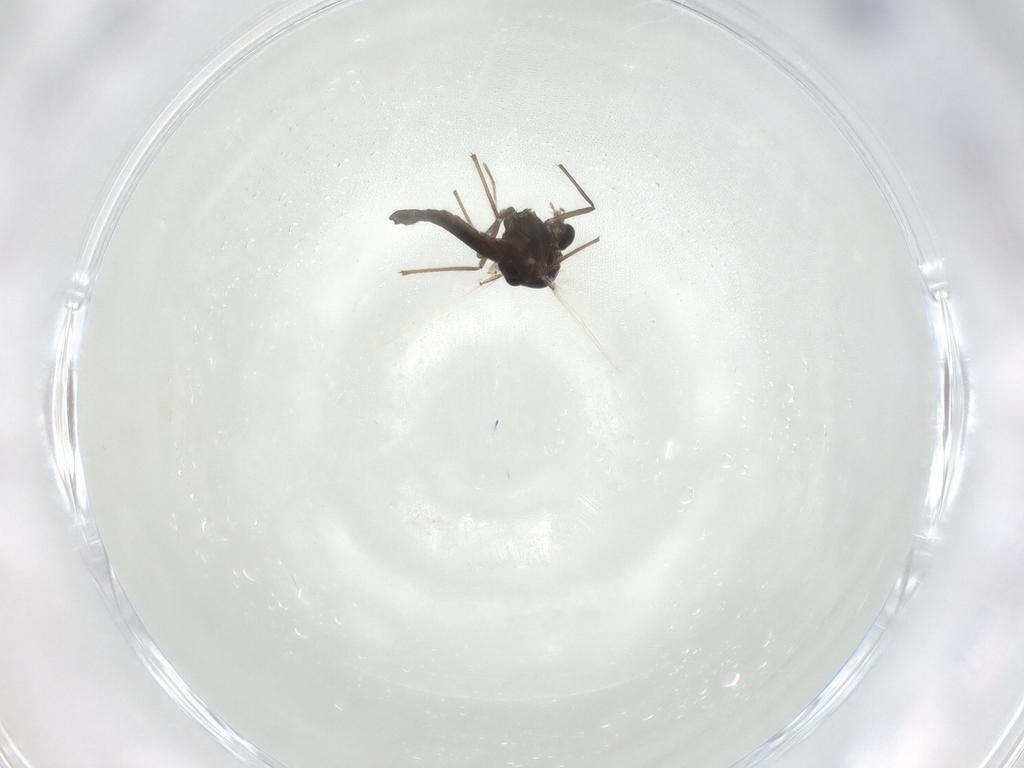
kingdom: Animalia
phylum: Arthropoda
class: Insecta
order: Diptera
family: Chironomidae
